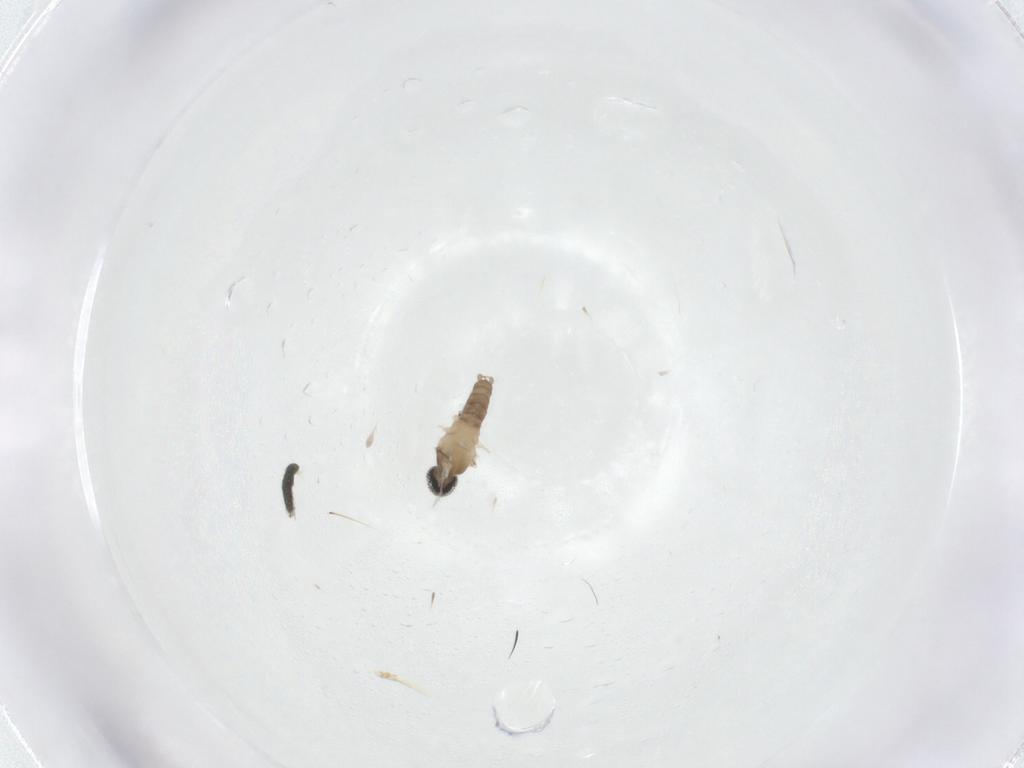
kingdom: Animalia
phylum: Arthropoda
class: Insecta
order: Diptera
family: Cecidomyiidae
